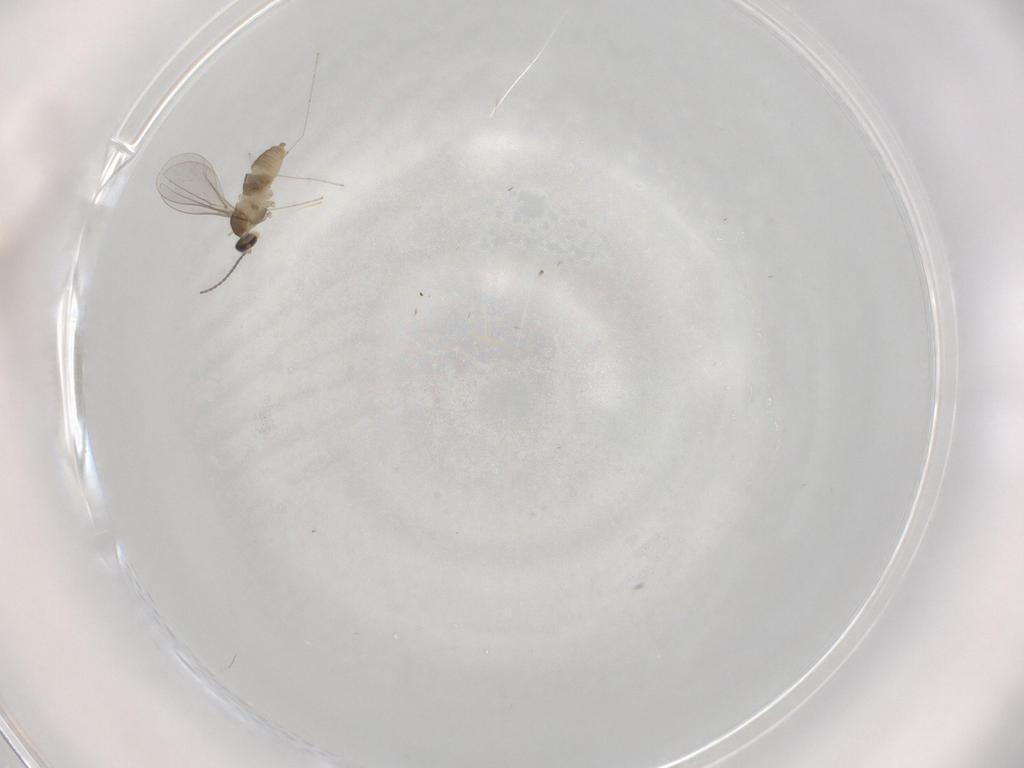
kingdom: Animalia
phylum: Arthropoda
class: Insecta
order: Diptera
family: Cecidomyiidae
